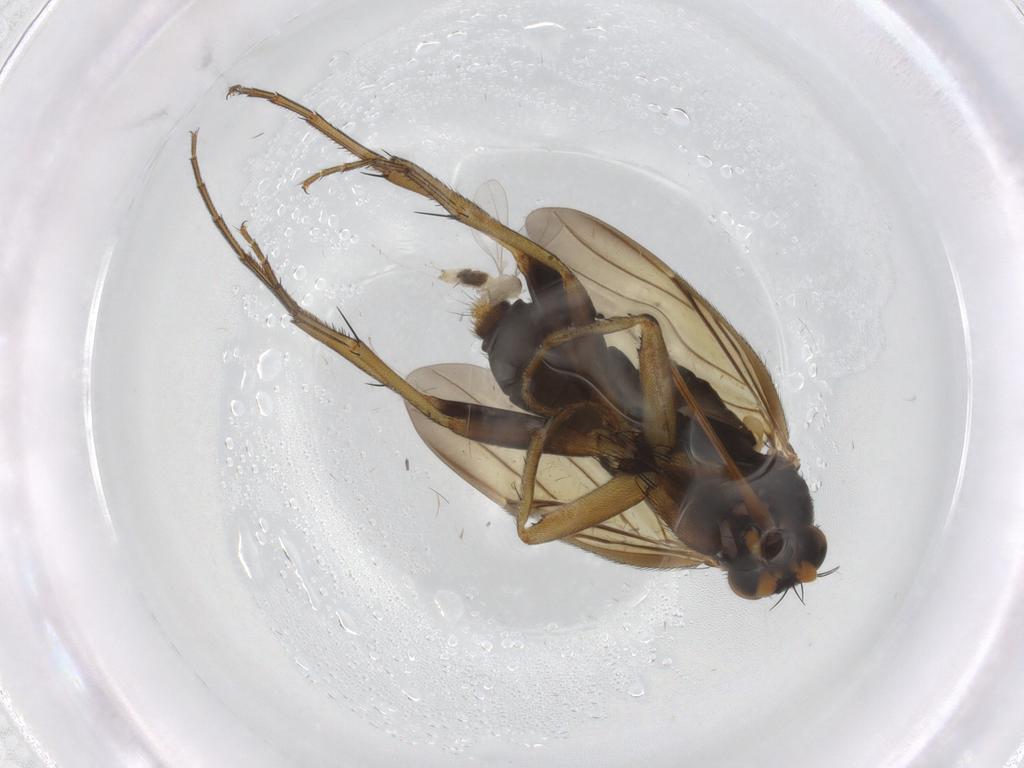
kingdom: Animalia
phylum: Arthropoda
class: Insecta
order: Diptera
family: Phoridae
